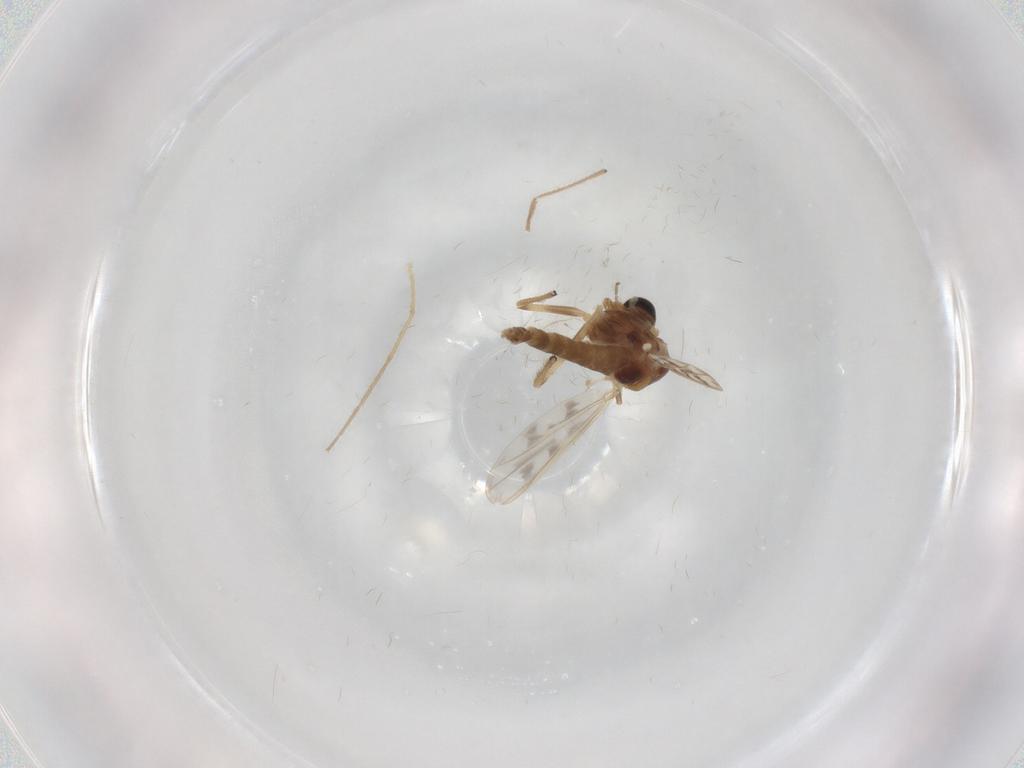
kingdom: Animalia
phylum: Arthropoda
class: Insecta
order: Diptera
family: Chironomidae
